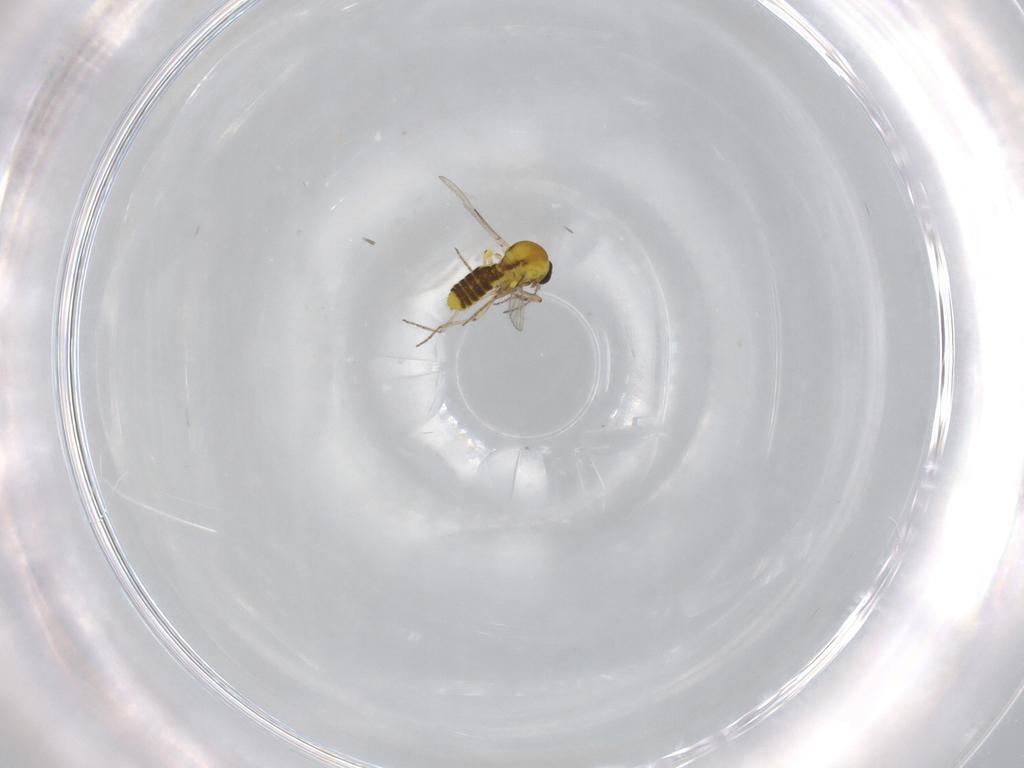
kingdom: Animalia
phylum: Arthropoda
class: Insecta
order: Diptera
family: Ceratopogonidae
